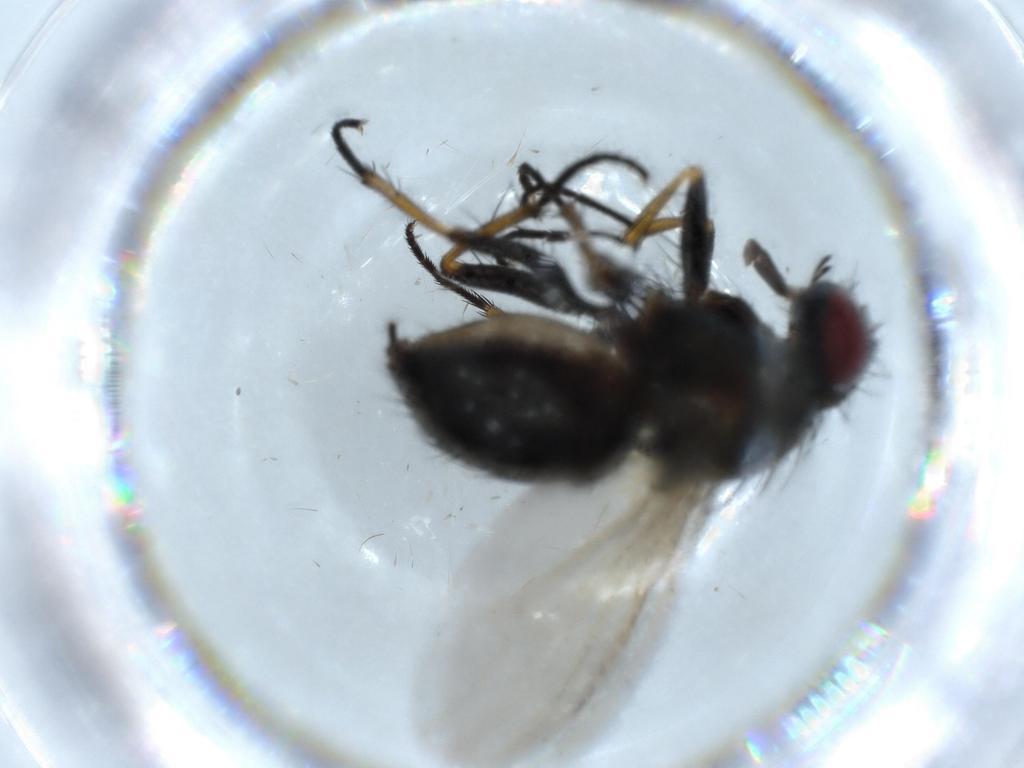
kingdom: Animalia
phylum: Arthropoda
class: Insecta
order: Diptera
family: Sciaridae
